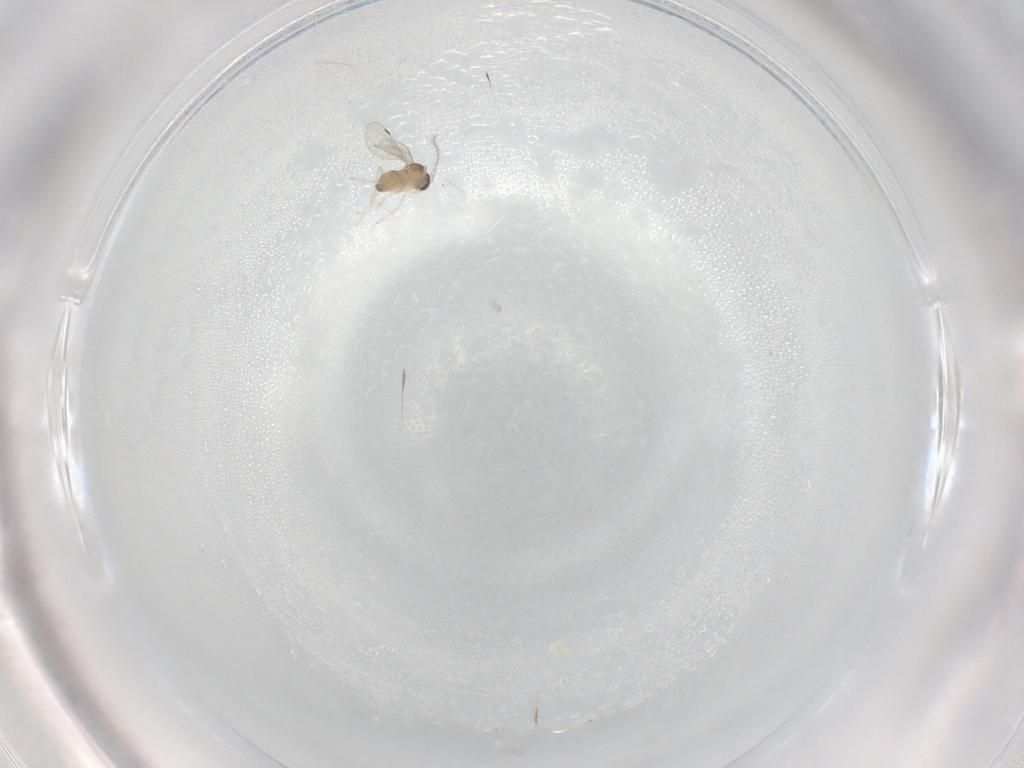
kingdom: Animalia
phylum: Arthropoda
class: Insecta
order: Diptera
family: Cecidomyiidae
